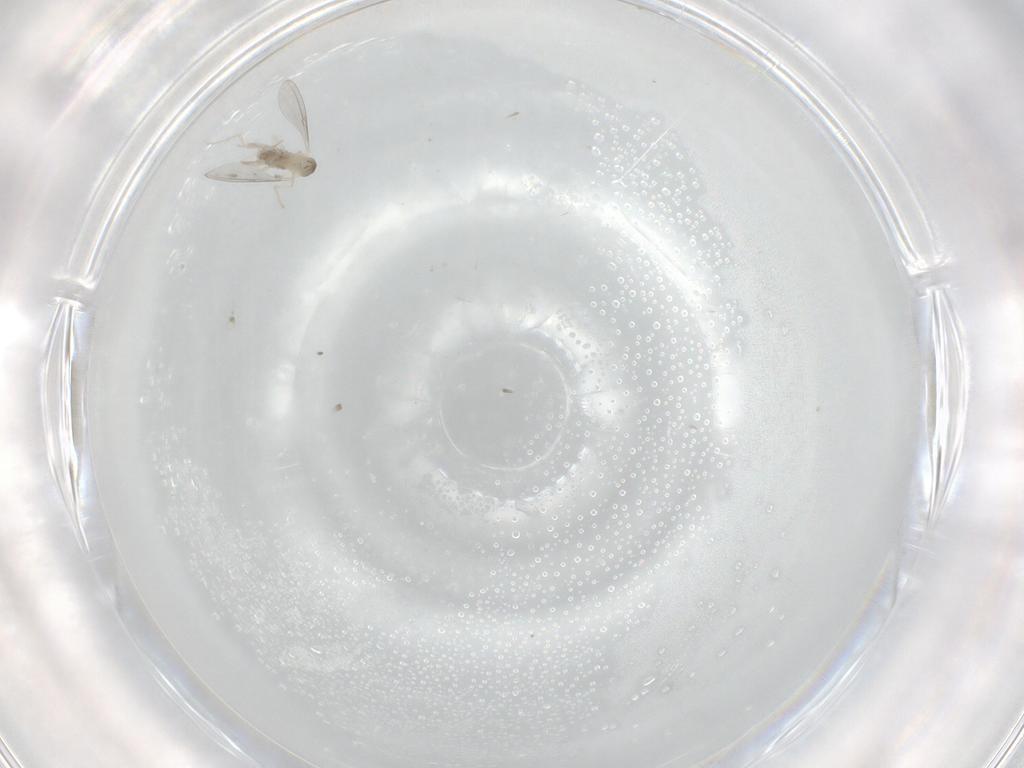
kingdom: Animalia
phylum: Arthropoda
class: Insecta
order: Diptera
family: Cecidomyiidae
